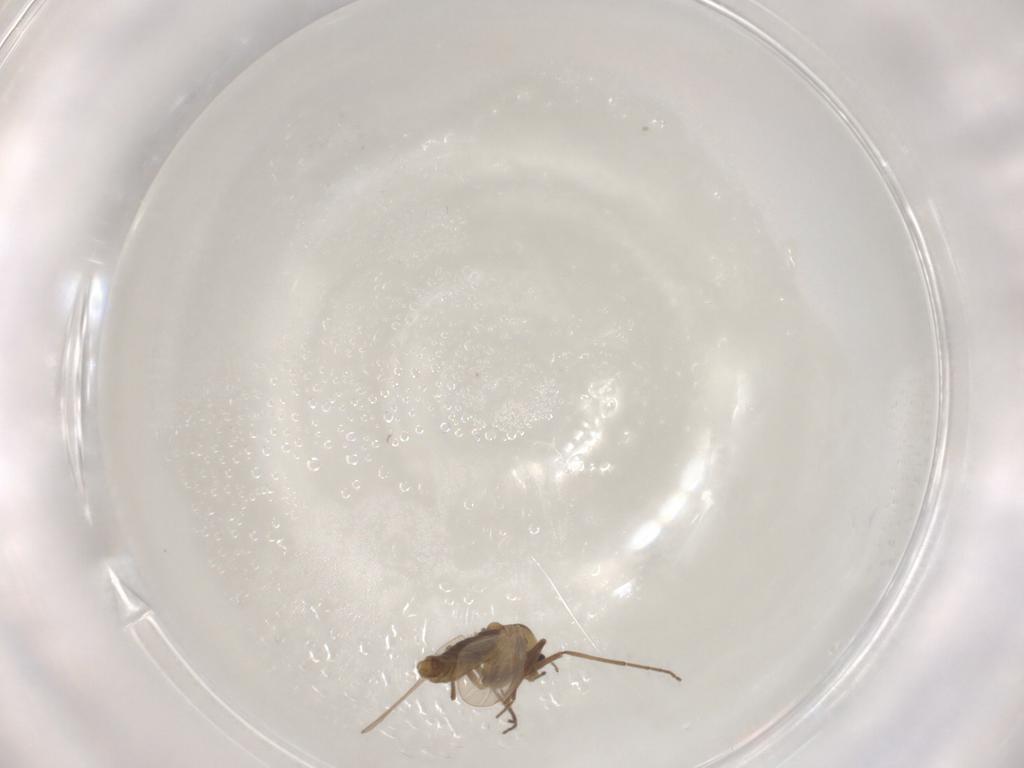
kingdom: Animalia
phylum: Arthropoda
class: Insecta
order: Diptera
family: Chironomidae
